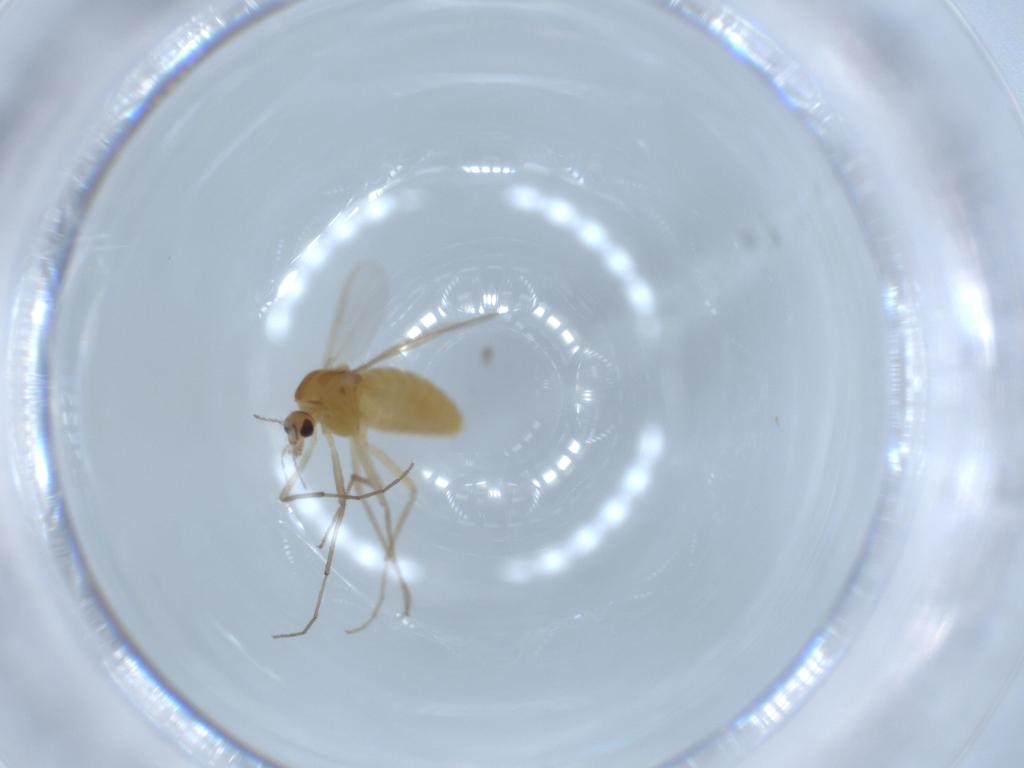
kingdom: Animalia
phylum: Arthropoda
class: Insecta
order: Diptera
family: Chironomidae
